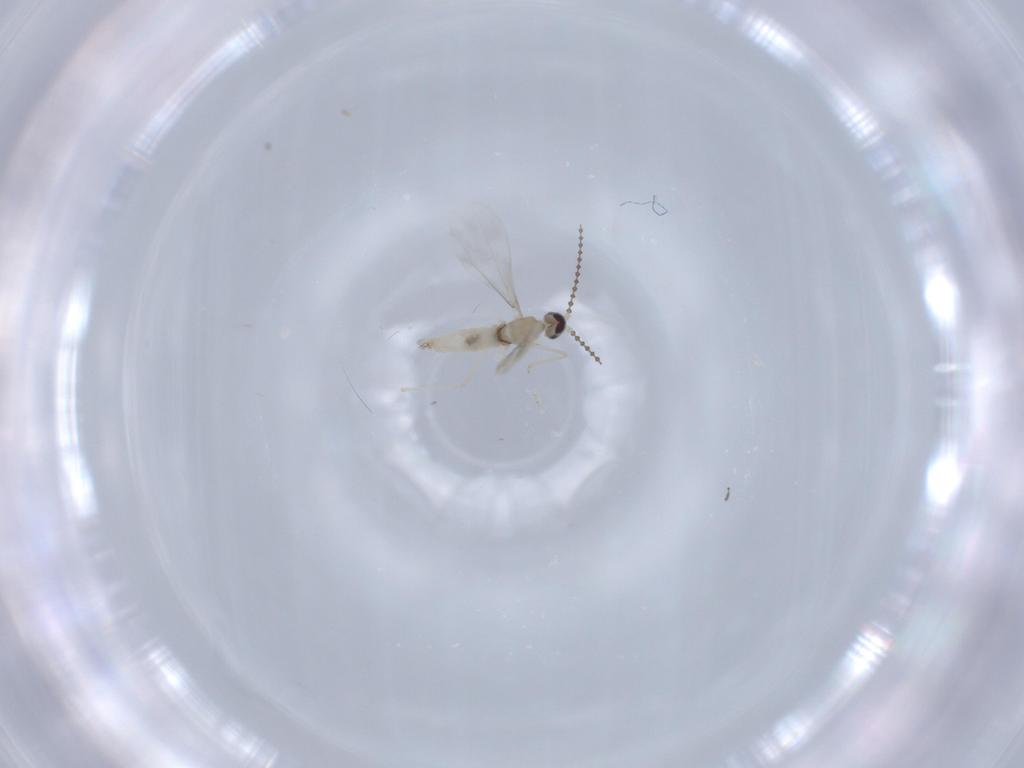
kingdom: Animalia
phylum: Arthropoda
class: Insecta
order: Diptera
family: Cecidomyiidae
